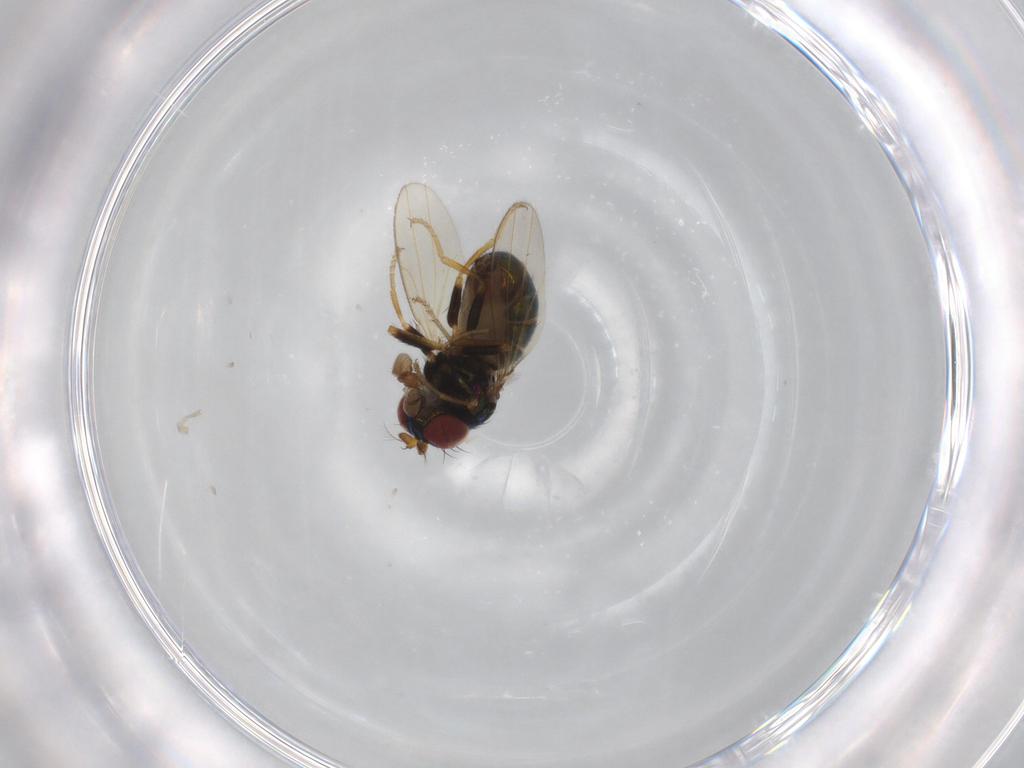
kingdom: Animalia
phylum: Arthropoda
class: Insecta
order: Diptera
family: Ephydridae
